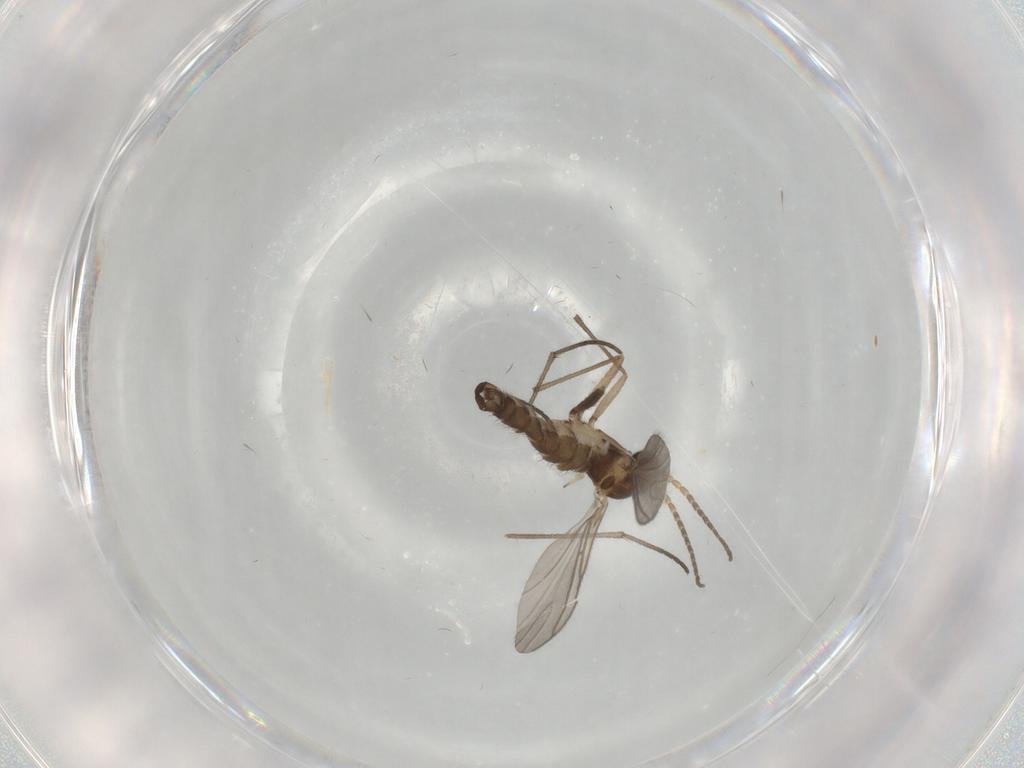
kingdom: Animalia
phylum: Arthropoda
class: Insecta
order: Diptera
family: Sciaridae
